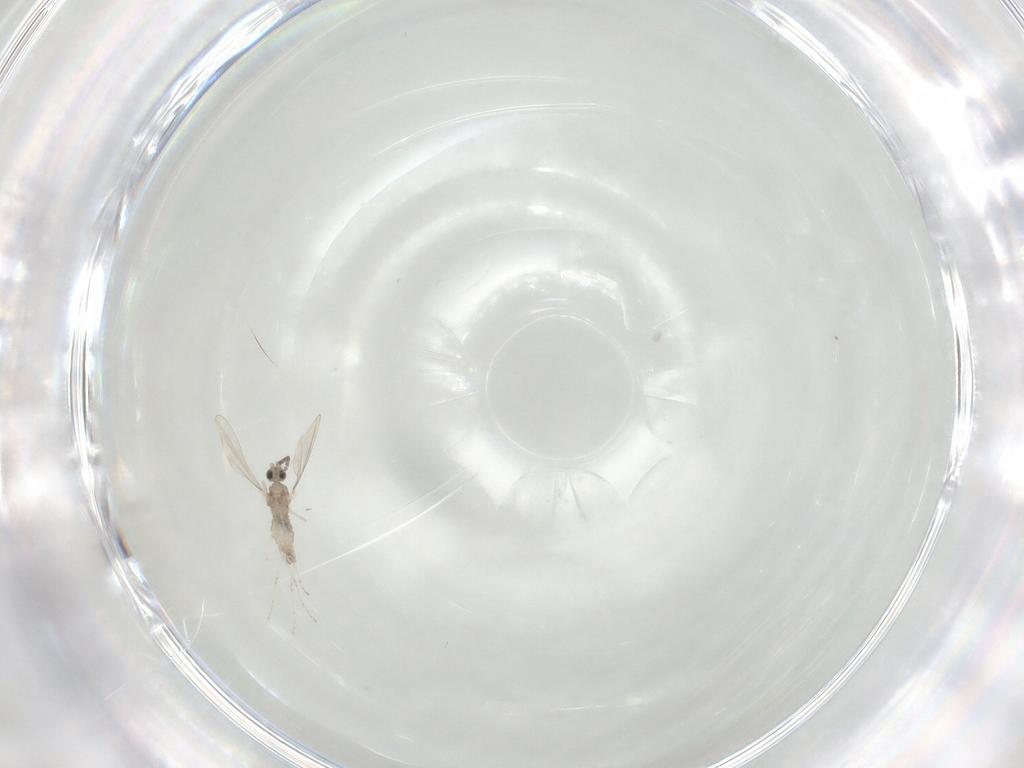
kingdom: Animalia
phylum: Arthropoda
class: Insecta
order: Diptera
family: Cecidomyiidae
